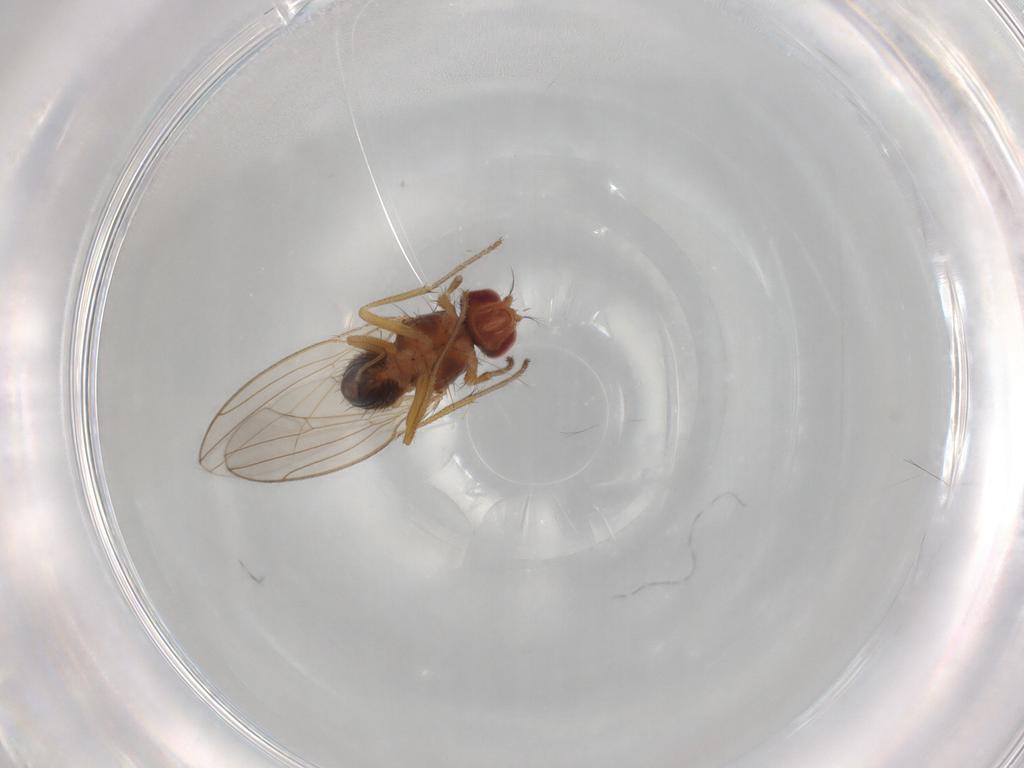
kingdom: Animalia
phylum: Arthropoda
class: Insecta
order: Diptera
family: Drosophilidae
